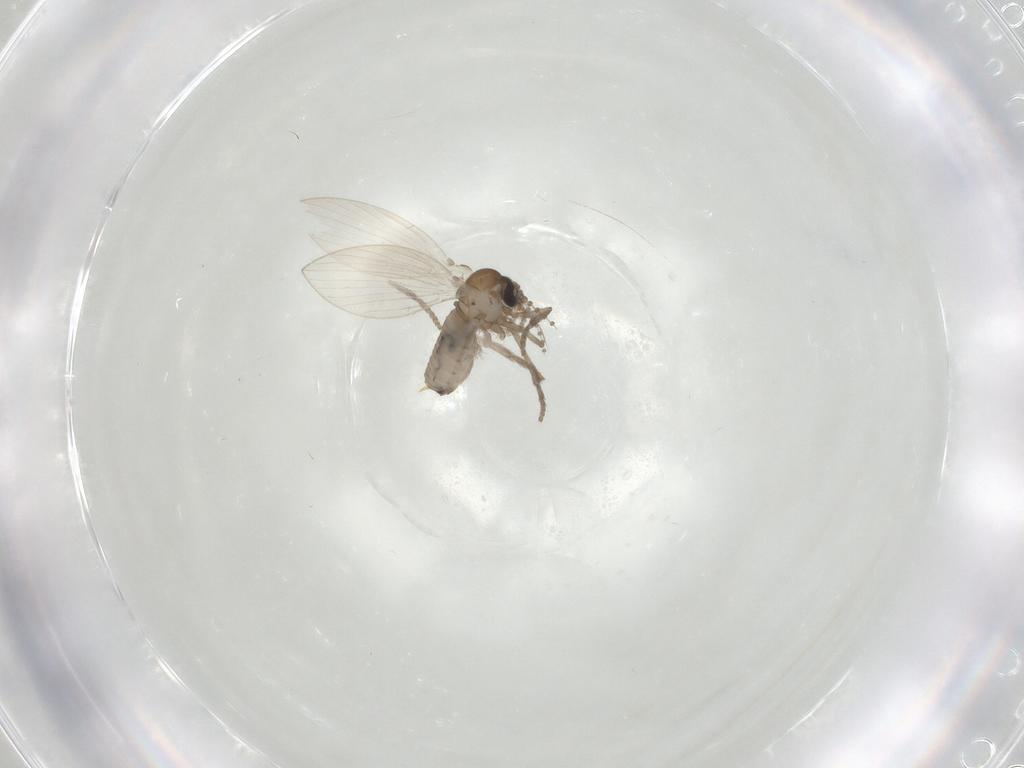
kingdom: Animalia
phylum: Arthropoda
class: Insecta
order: Diptera
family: Psychodidae
